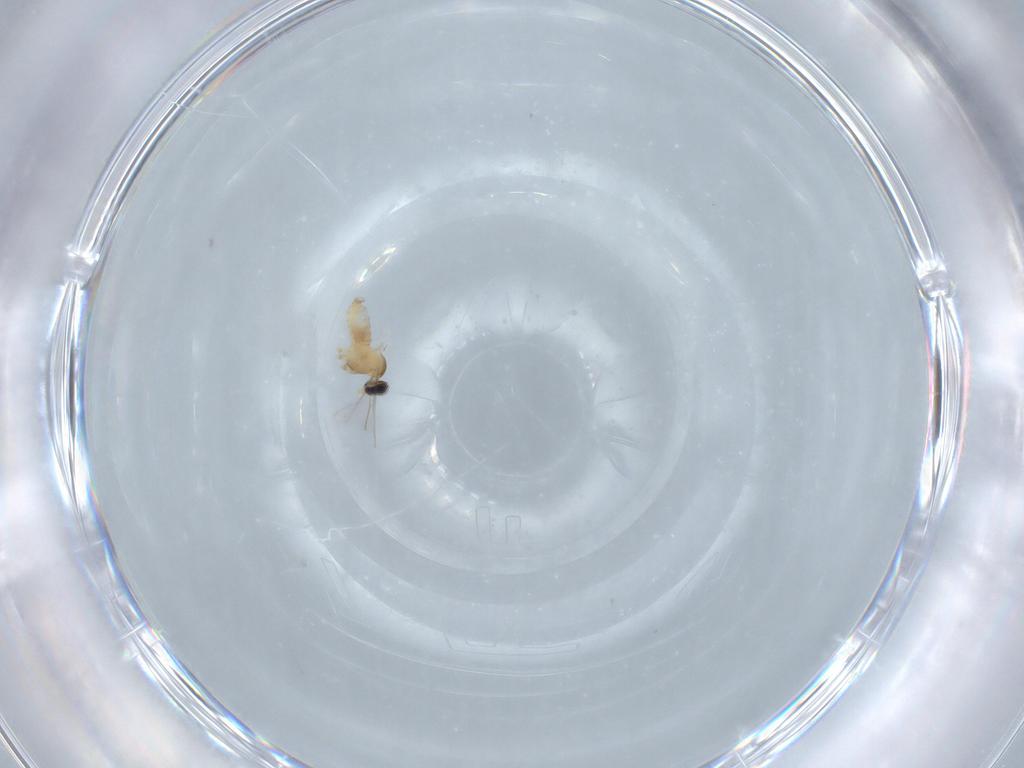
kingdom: Animalia
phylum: Arthropoda
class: Insecta
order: Diptera
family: Cecidomyiidae
